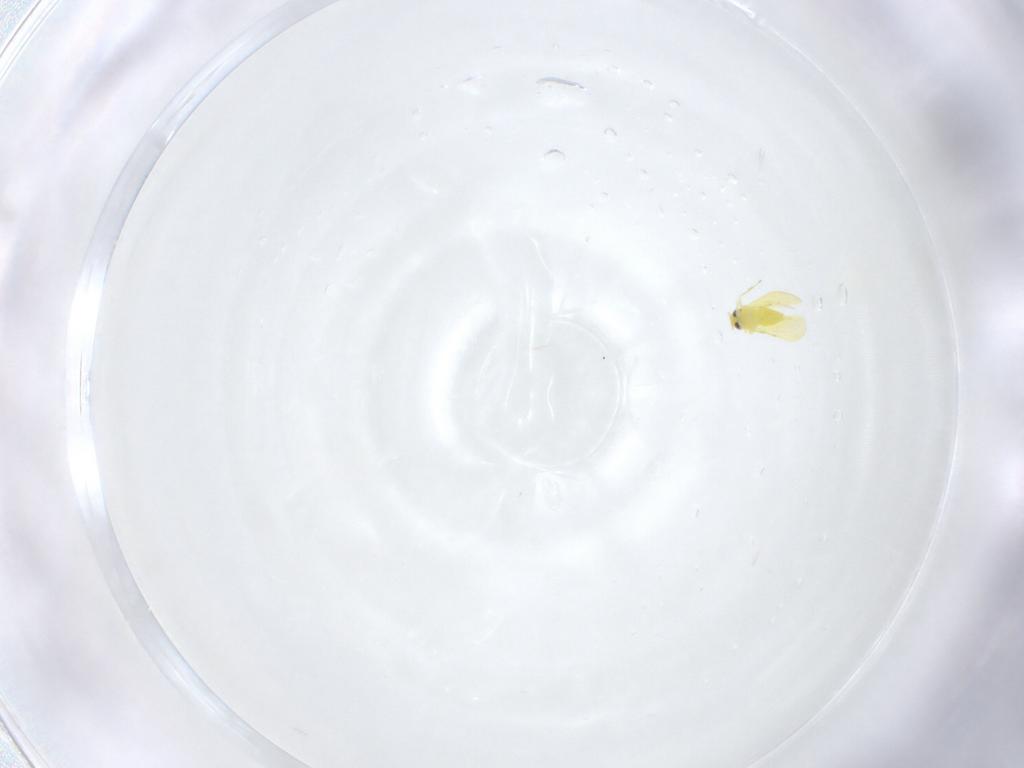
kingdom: Animalia
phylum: Arthropoda
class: Insecta
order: Hemiptera
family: Aleyrodidae
